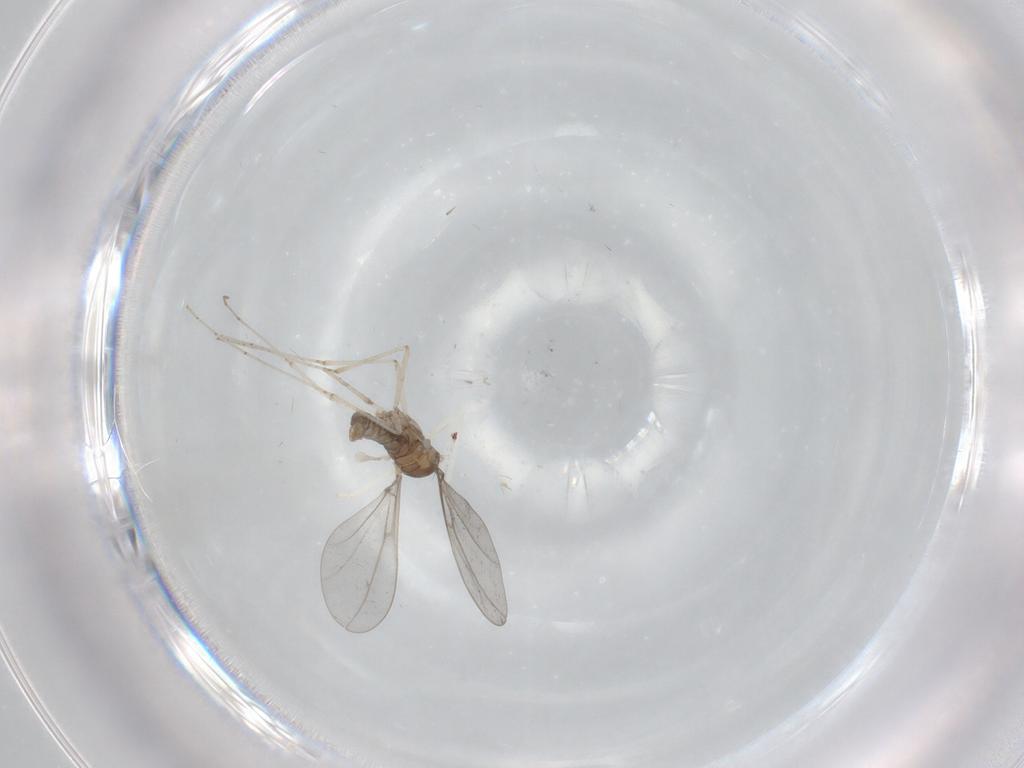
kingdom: Animalia
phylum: Arthropoda
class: Insecta
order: Diptera
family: Cecidomyiidae
